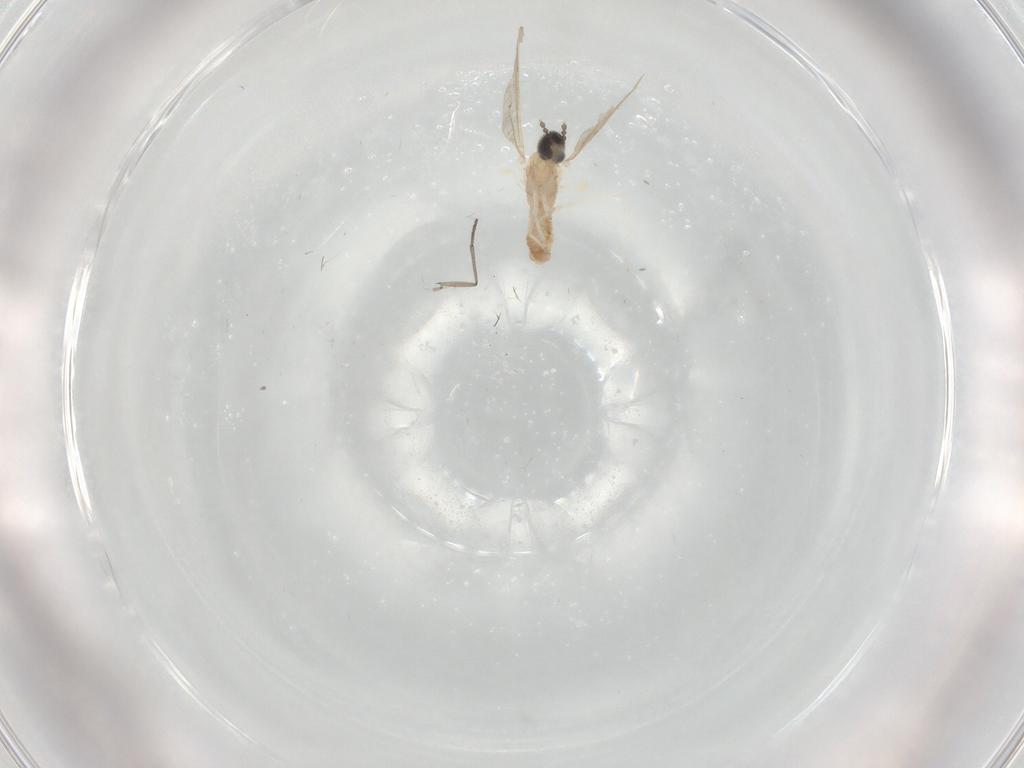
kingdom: Animalia
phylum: Arthropoda
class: Insecta
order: Diptera
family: Cecidomyiidae
